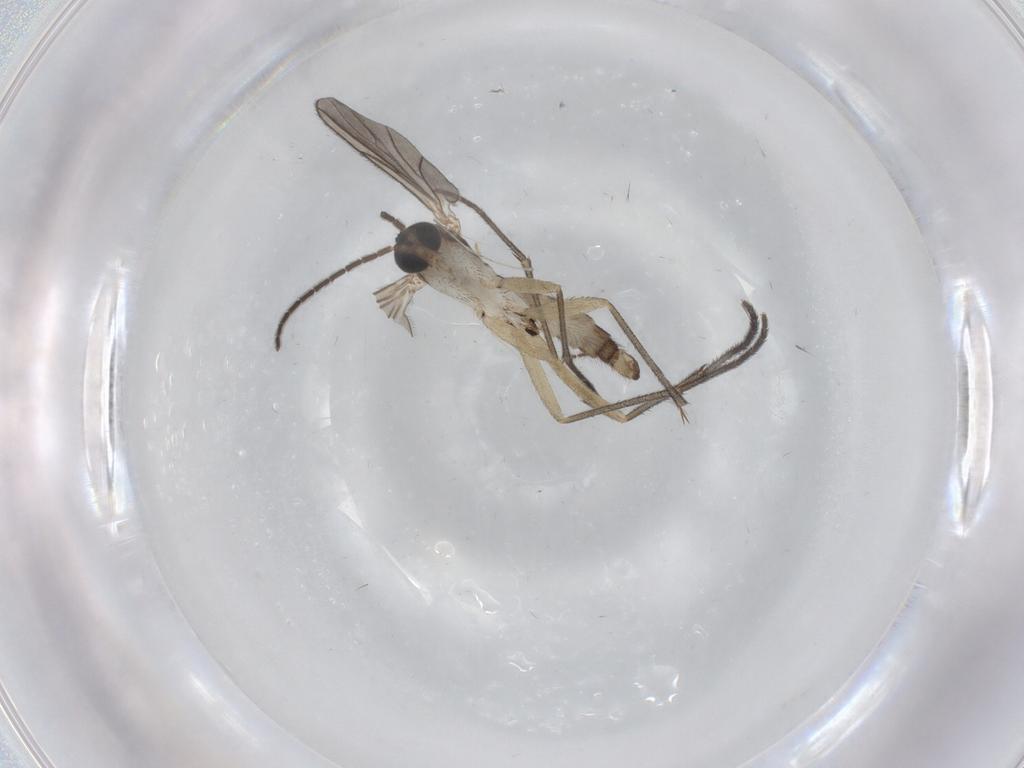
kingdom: Animalia
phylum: Arthropoda
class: Insecta
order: Diptera
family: Sciaridae
